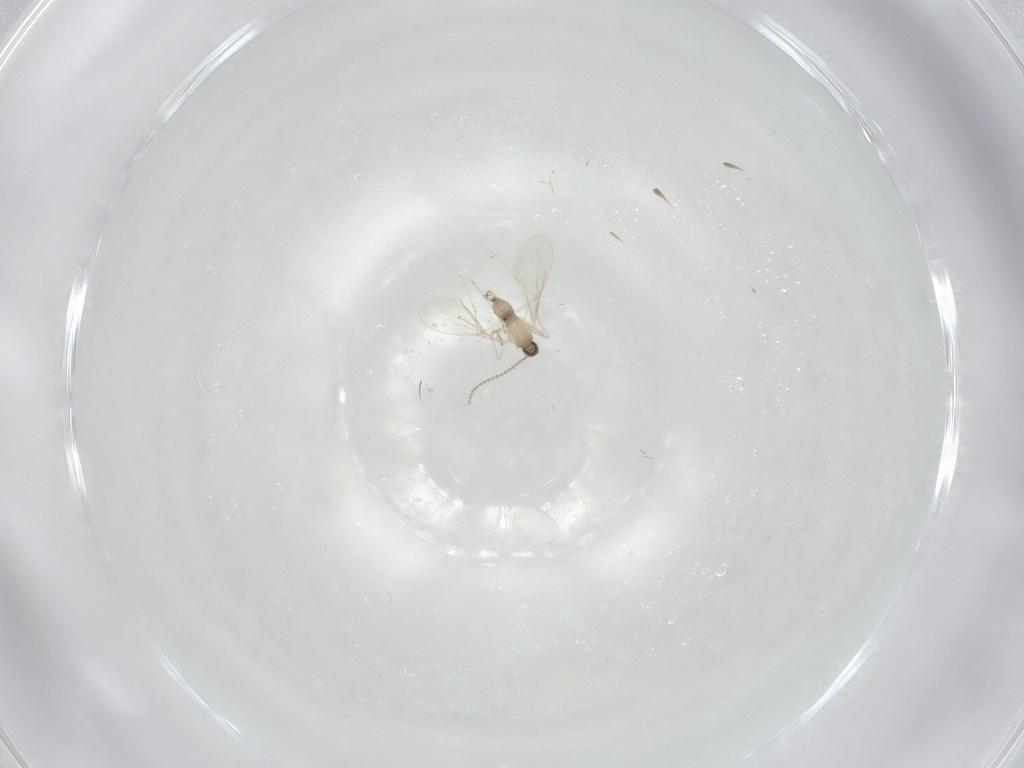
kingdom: Animalia
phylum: Arthropoda
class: Insecta
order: Diptera
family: Cecidomyiidae
